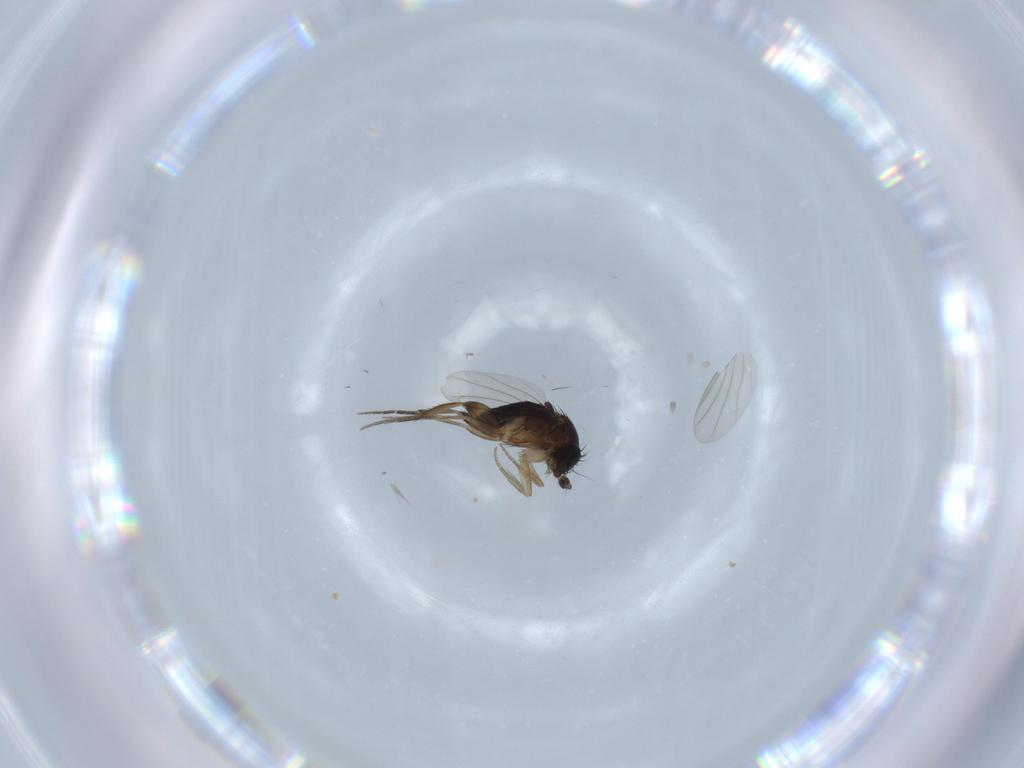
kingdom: Animalia
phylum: Arthropoda
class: Insecta
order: Diptera
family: Phoridae
